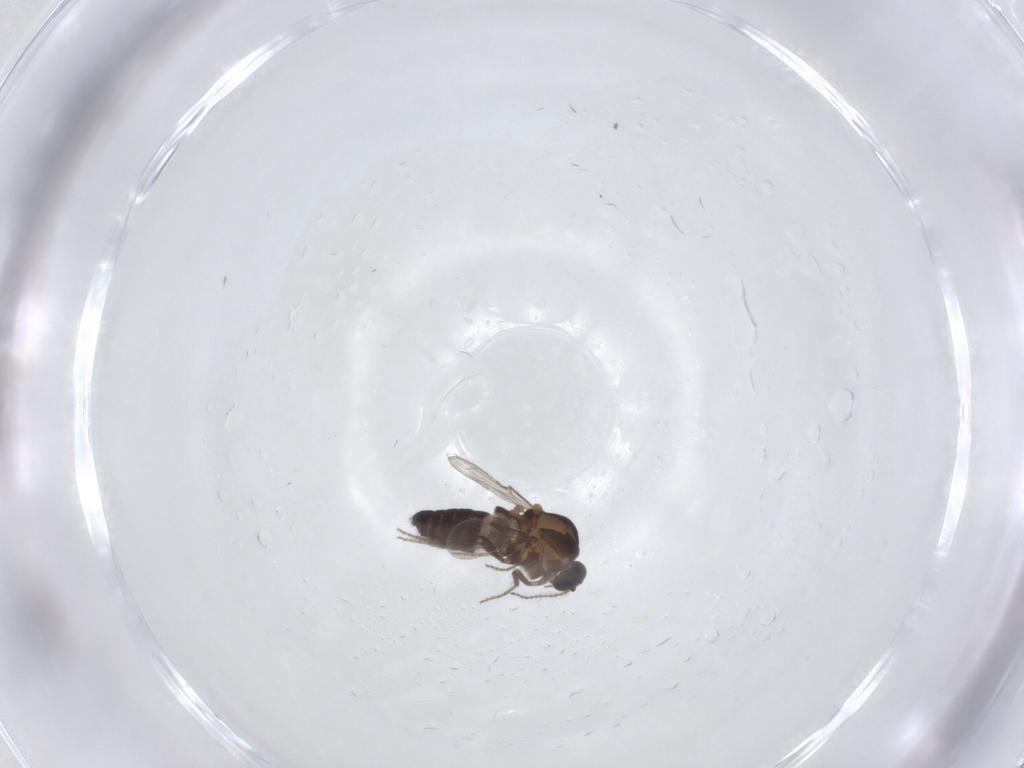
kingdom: Animalia
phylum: Arthropoda
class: Insecta
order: Diptera
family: Ceratopogonidae
